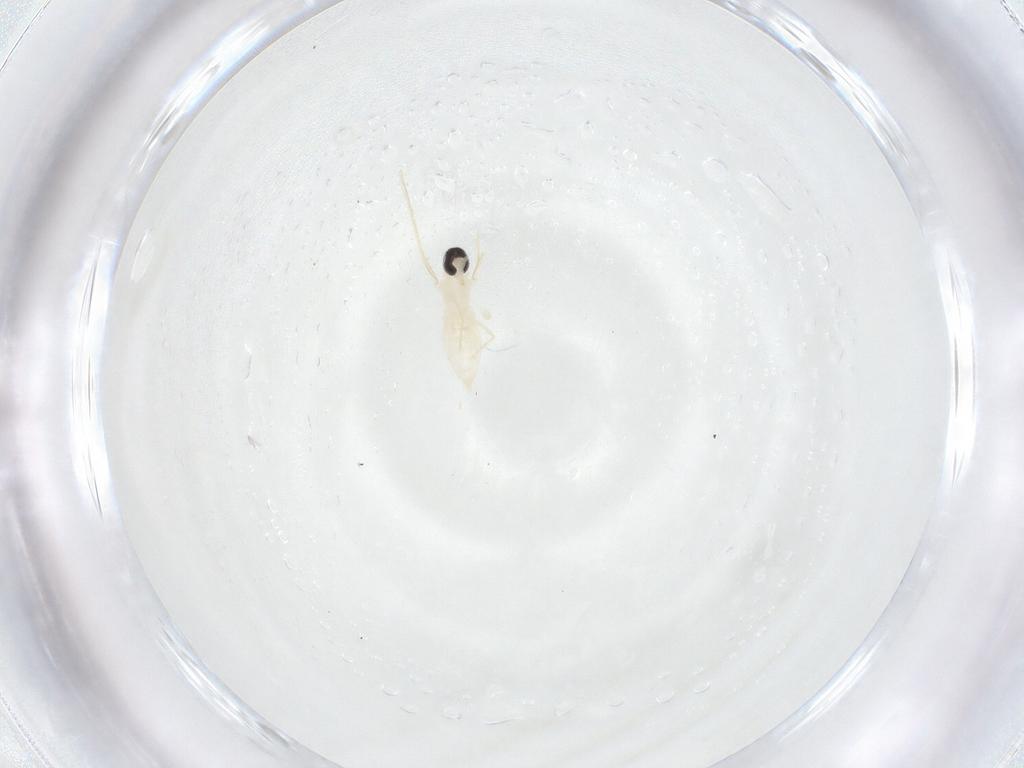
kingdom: Animalia
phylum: Arthropoda
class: Insecta
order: Diptera
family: Cecidomyiidae
